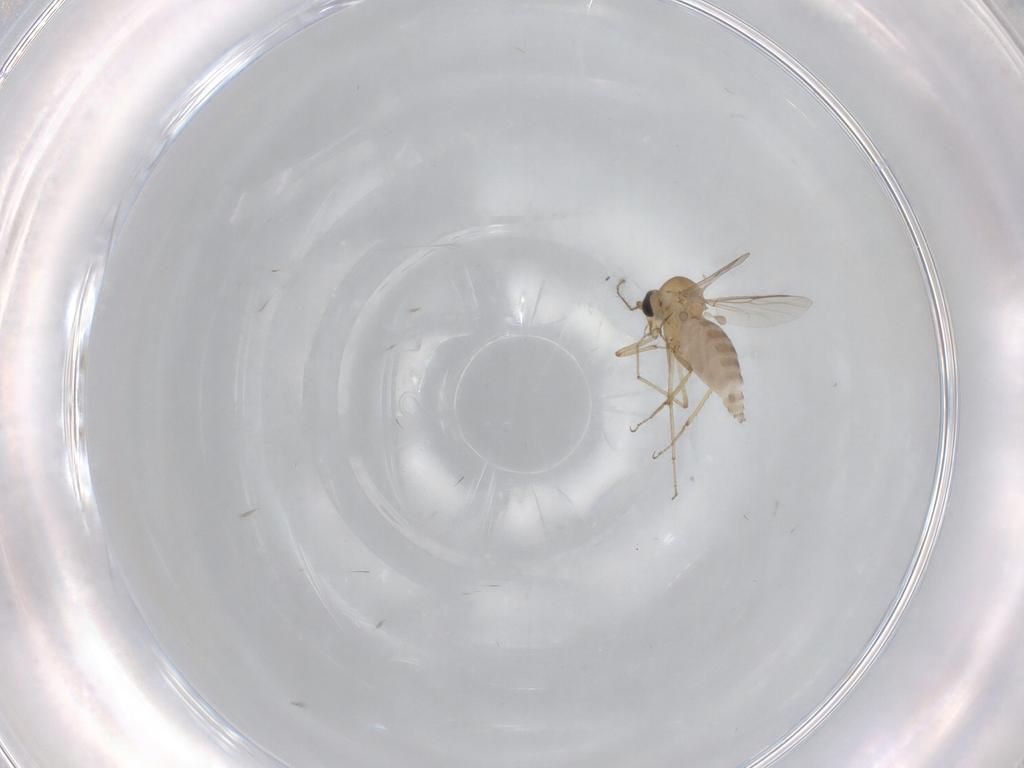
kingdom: Animalia
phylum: Arthropoda
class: Insecta
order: Diptera
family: Cecidomyiidae
